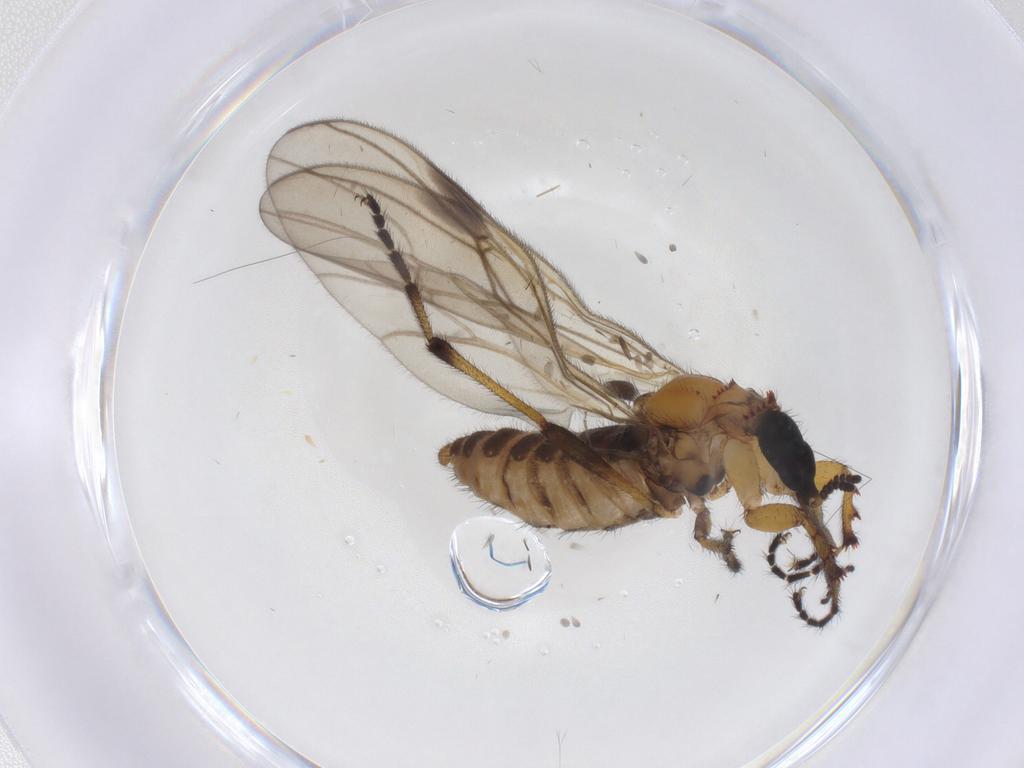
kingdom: Animalia
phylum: Arthropoda
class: Insecta
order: Diptera
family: Bibionidae
